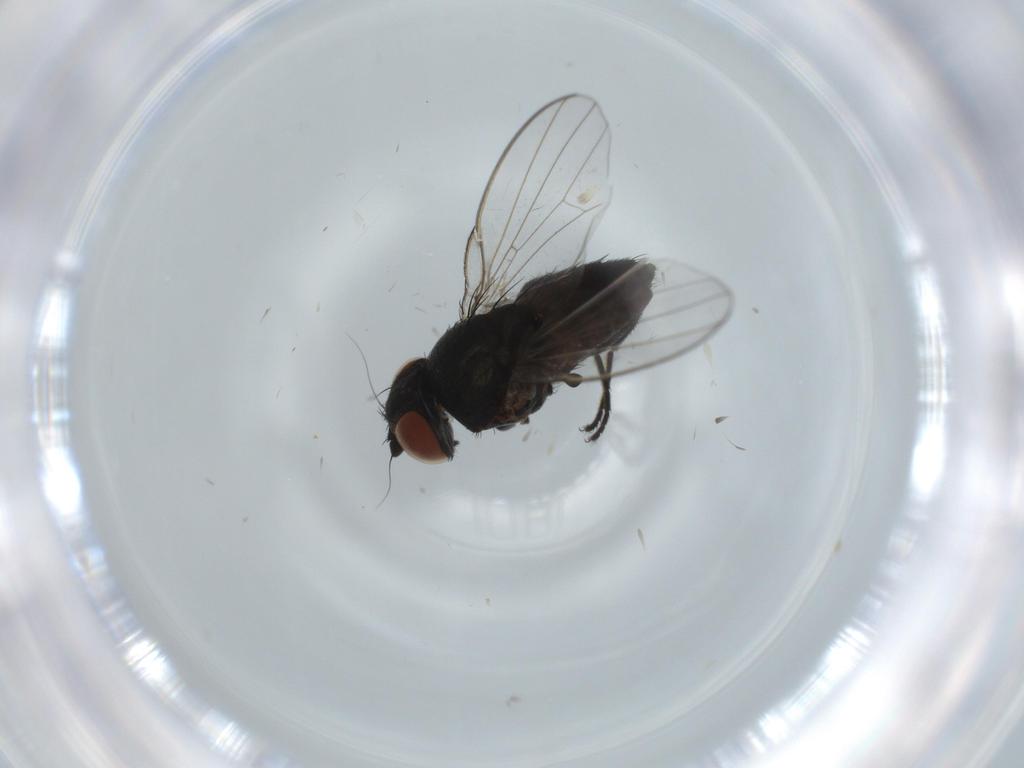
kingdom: Animalia
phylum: Arthropoda
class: Insecta
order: Diptera
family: Milichiidae
